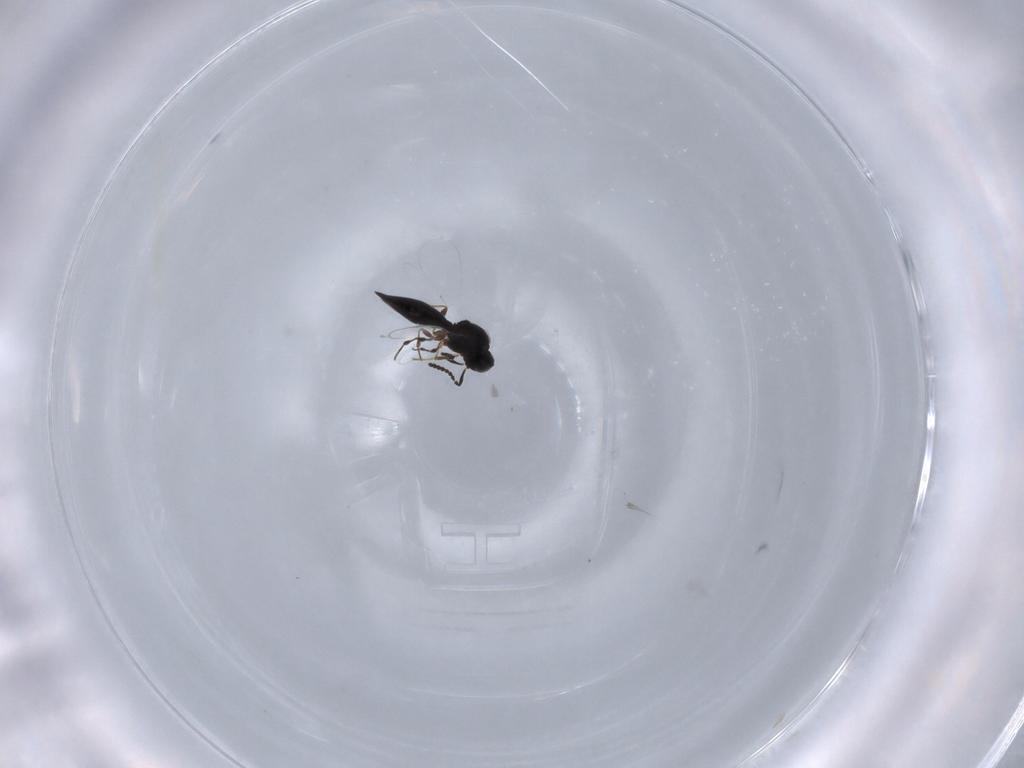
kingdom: Animalia
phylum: Arthropoda
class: Insecta
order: Hymenoptera
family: Platygastridae
